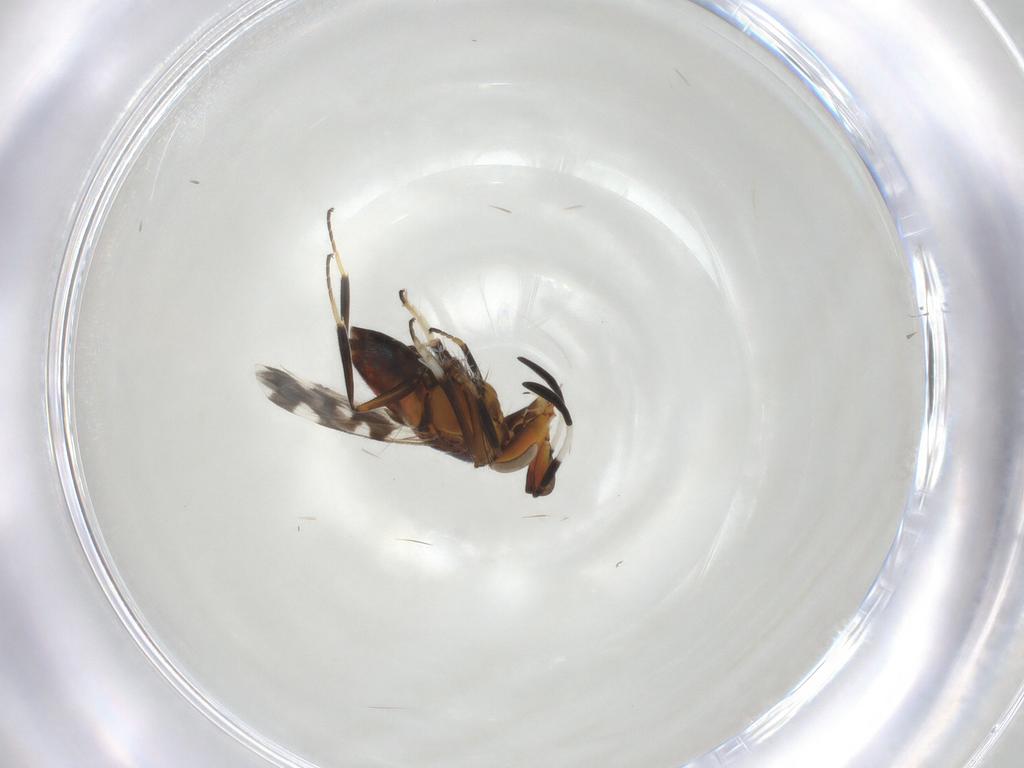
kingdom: Animalia
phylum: Arthropoda
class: Insecta
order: Hymenoptera
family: Encyrtidae
